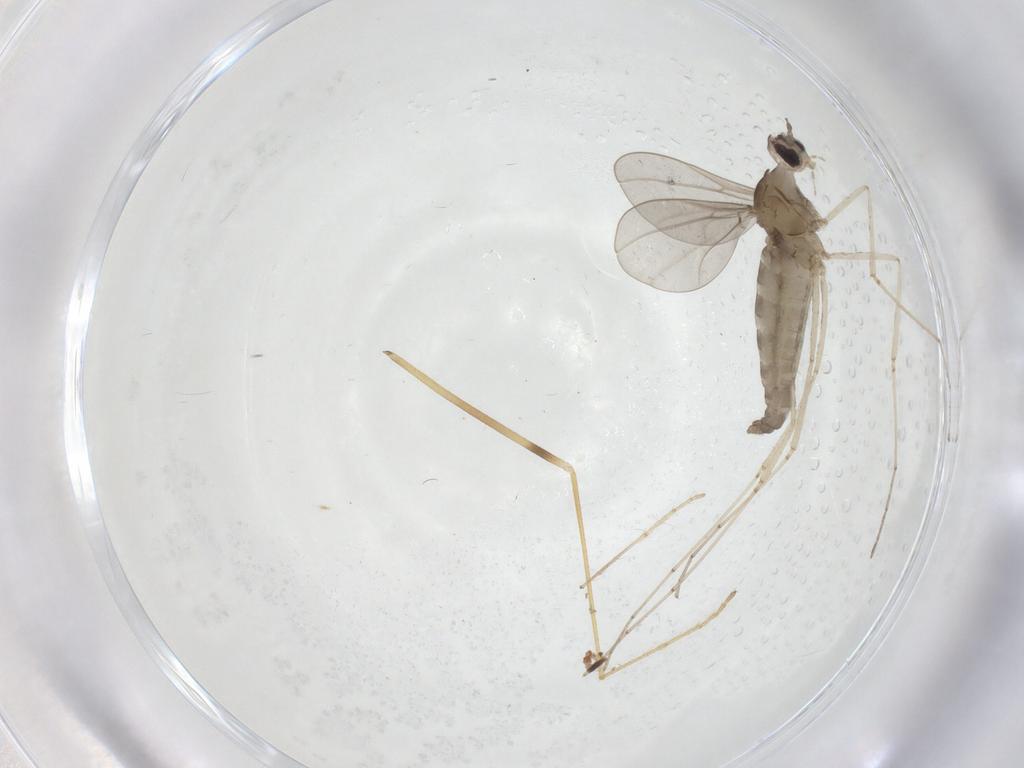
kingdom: Animalia
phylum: Arthropoda
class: Insecta
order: Diptera
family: Limoniidae
